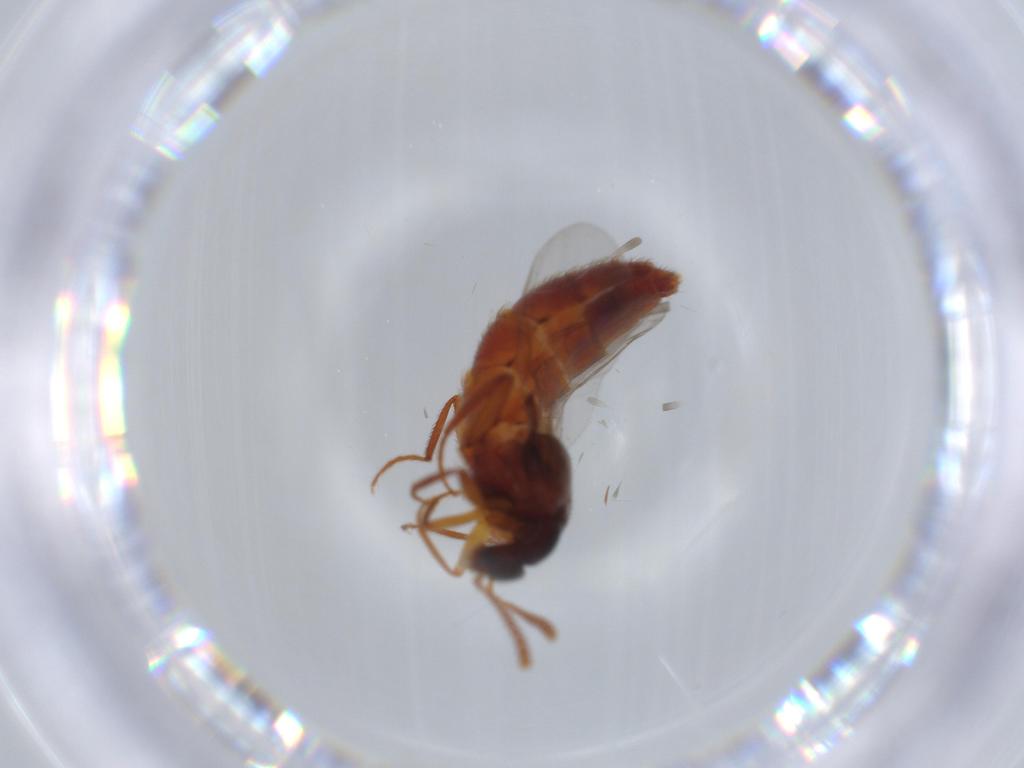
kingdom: Animalia
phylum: Arthropoda
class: Insecta
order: Coleoptera
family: Staphylinidae
